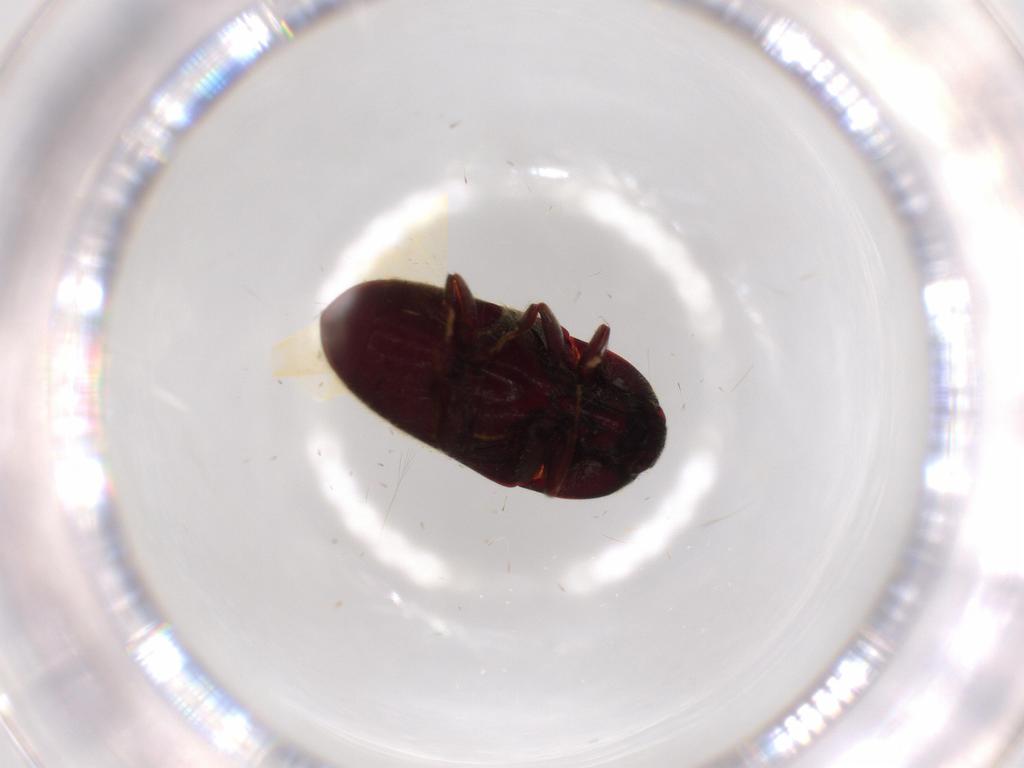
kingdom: Animalia
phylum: Arthropoda
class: Insecta
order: Coleoptera
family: Throscidae
